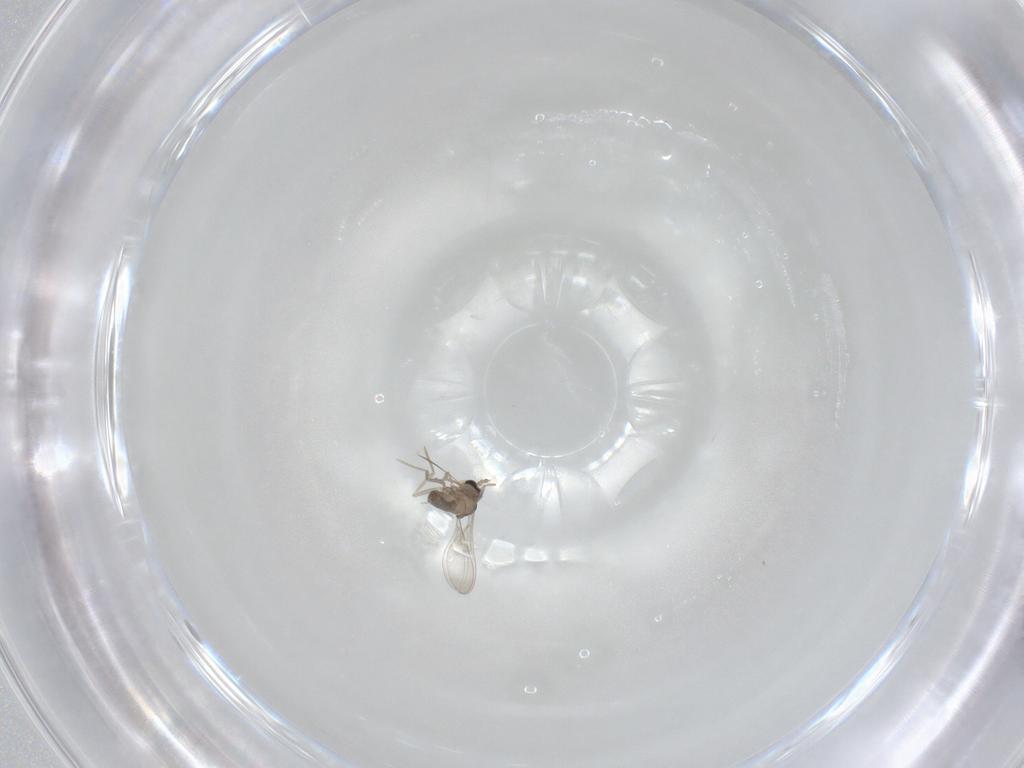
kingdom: Animalia
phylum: Arthropoda
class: Insecta
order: Diptera
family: Cecidomyiidae
